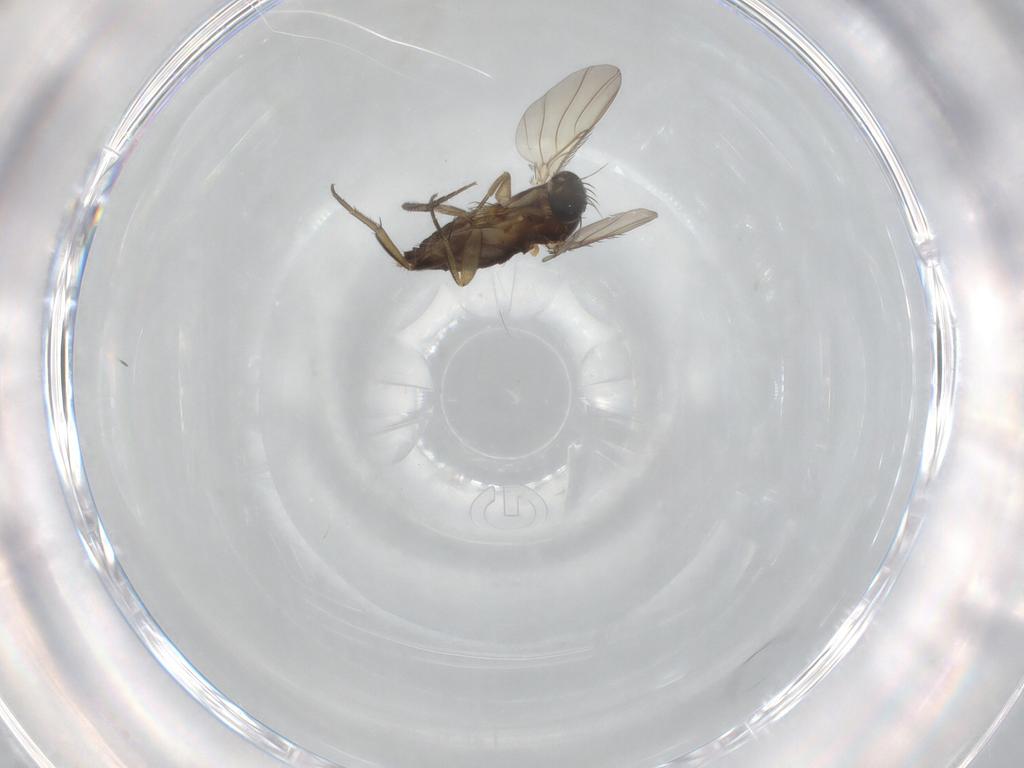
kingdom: Animalia
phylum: Arthropoda
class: Insecta
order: Diptera
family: Phoridae
